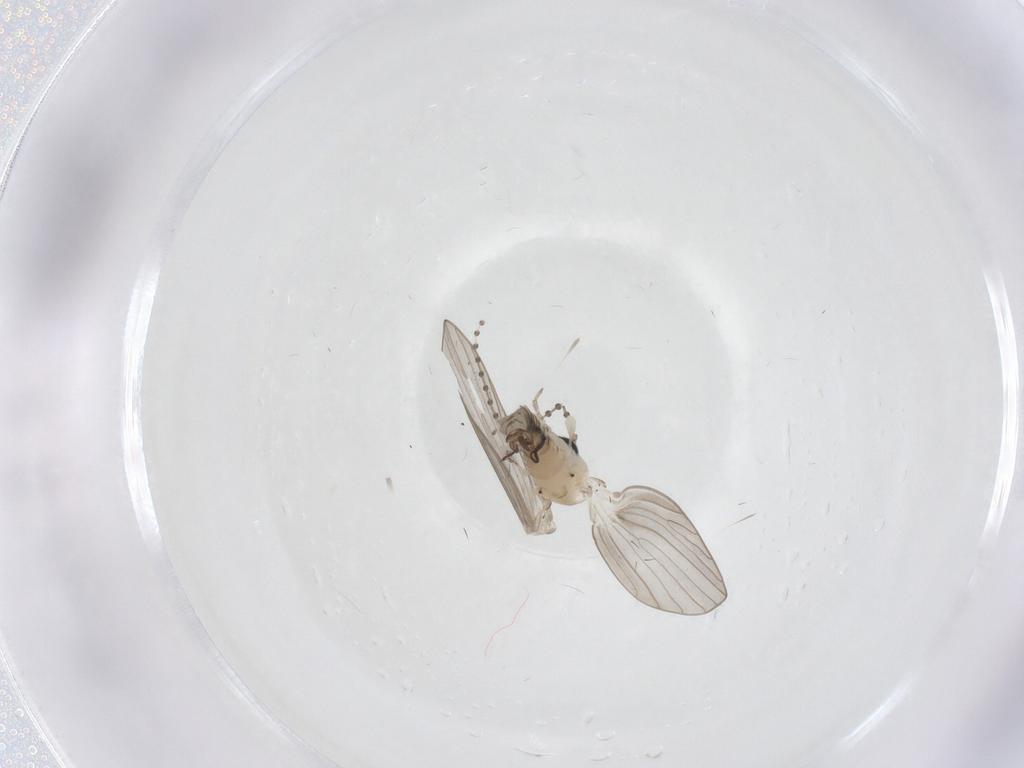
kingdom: Animalia
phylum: Arthropoda
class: Insecta
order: Diptera
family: Psychodidae
